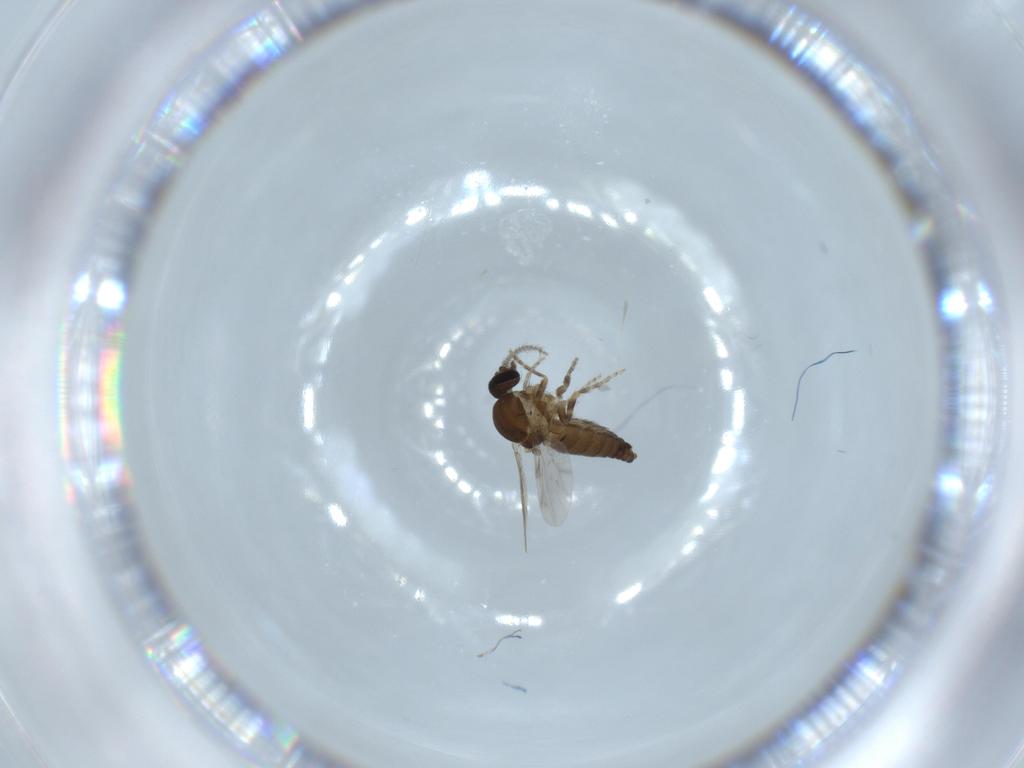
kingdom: Animalia
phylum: Arthropoda
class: Insecta
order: Diptera
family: Ceratopogonidae
